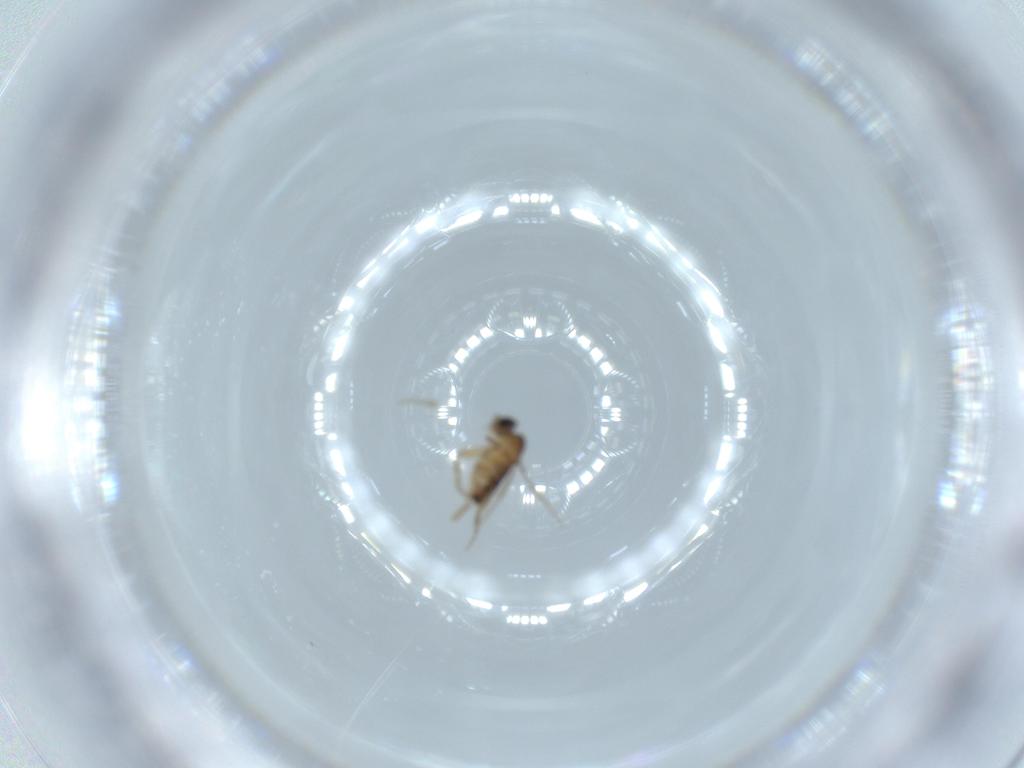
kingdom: Animalia
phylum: Arthropoda
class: Insecta
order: Diptera
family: Phoridae
